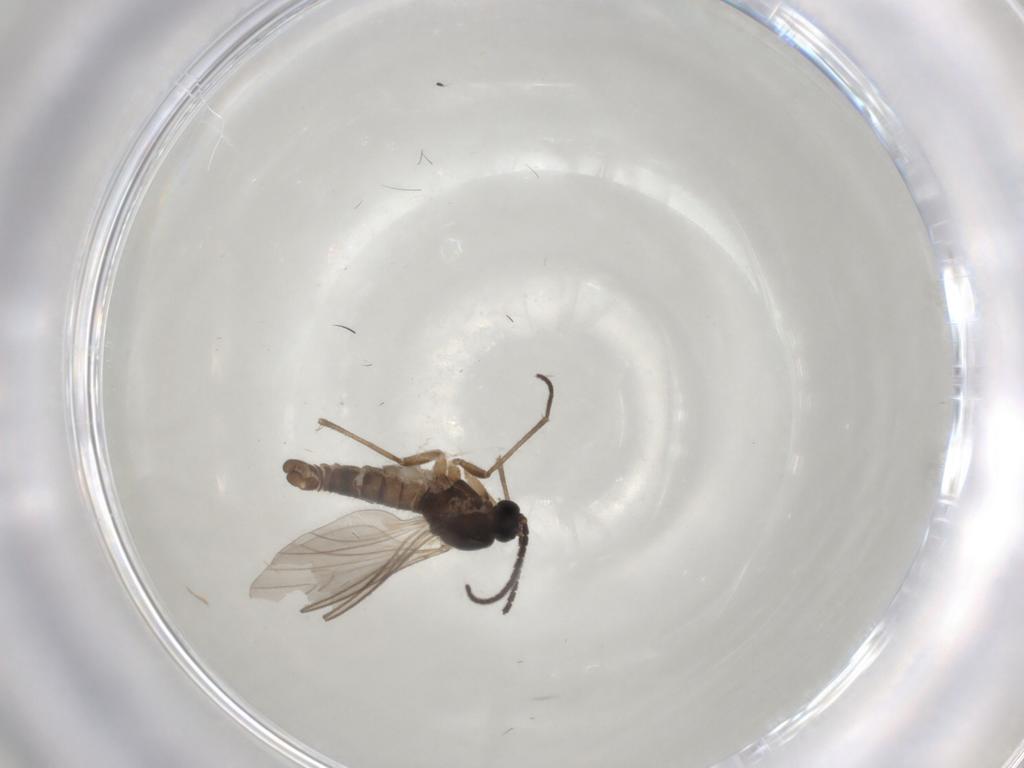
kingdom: Animalia
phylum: Arthropoda
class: Insecta
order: Diptera
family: Sciaridae
